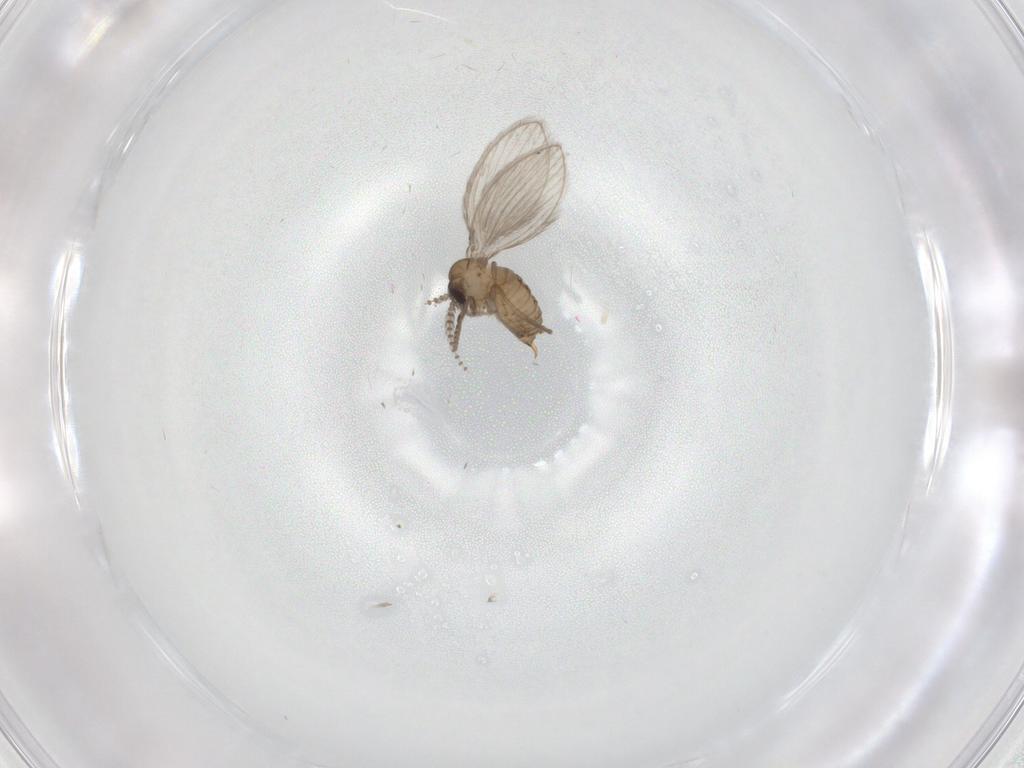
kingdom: Animalia
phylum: Arthropoda
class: Insecta
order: Diptera
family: Psychodidae
